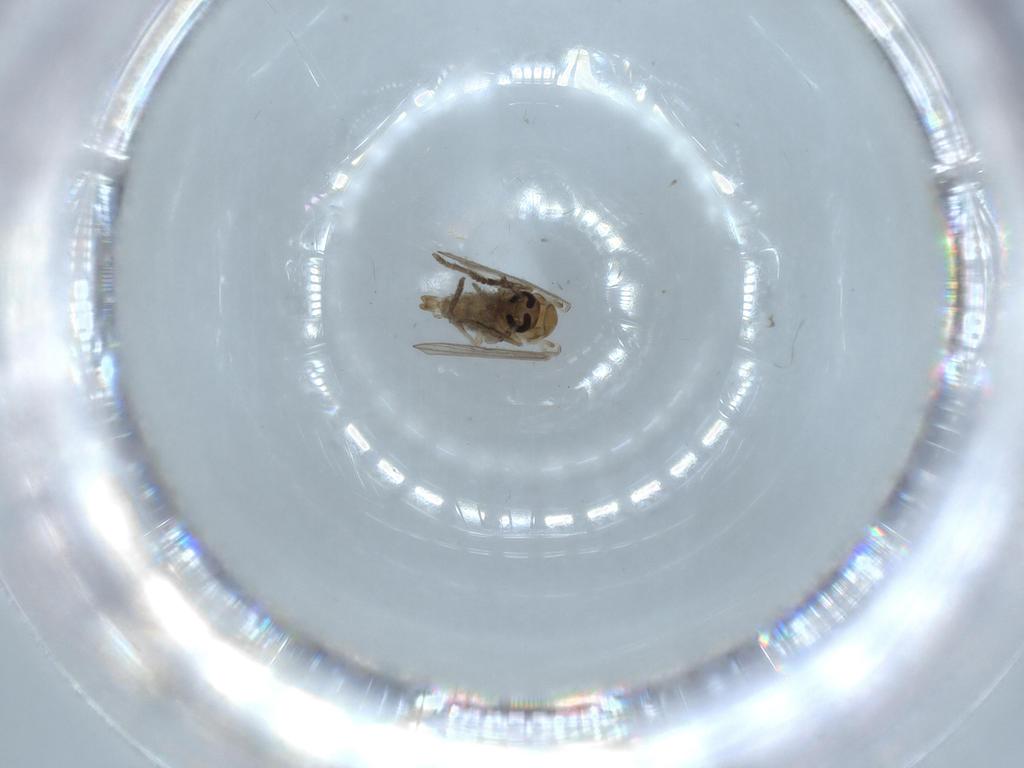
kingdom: Animalia
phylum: Arthropoda
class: Insecta
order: Diptera
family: Psychodidae
